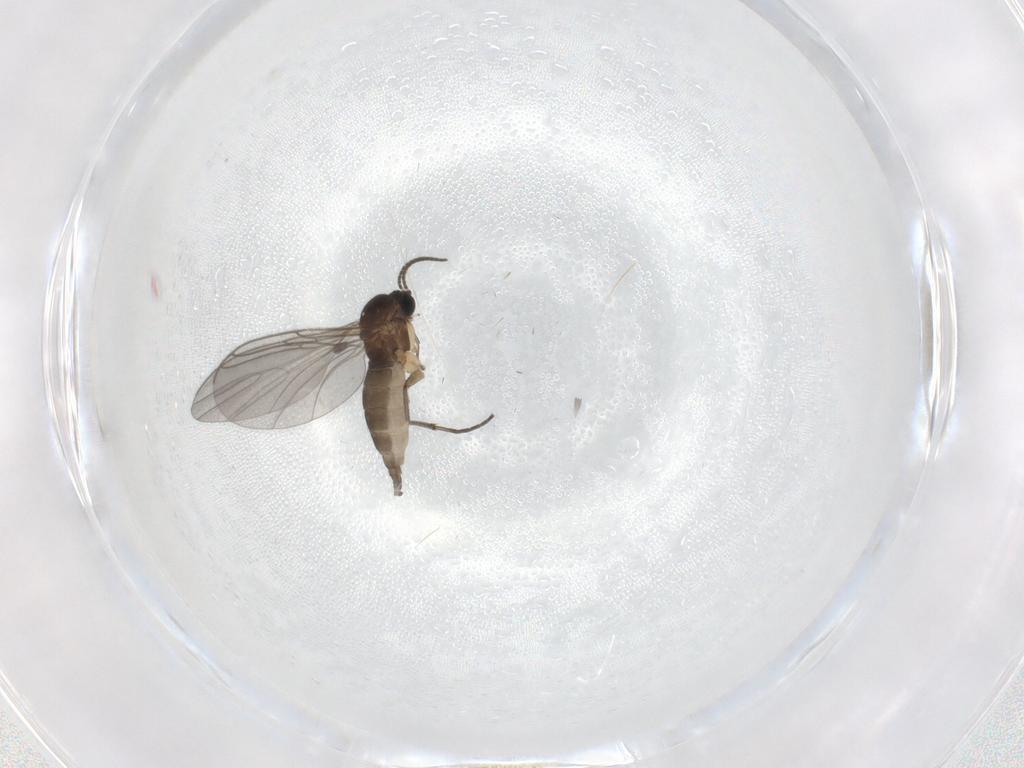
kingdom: Animalia
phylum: Arthropoda
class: Insecta
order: Diptera
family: Sciaridae
